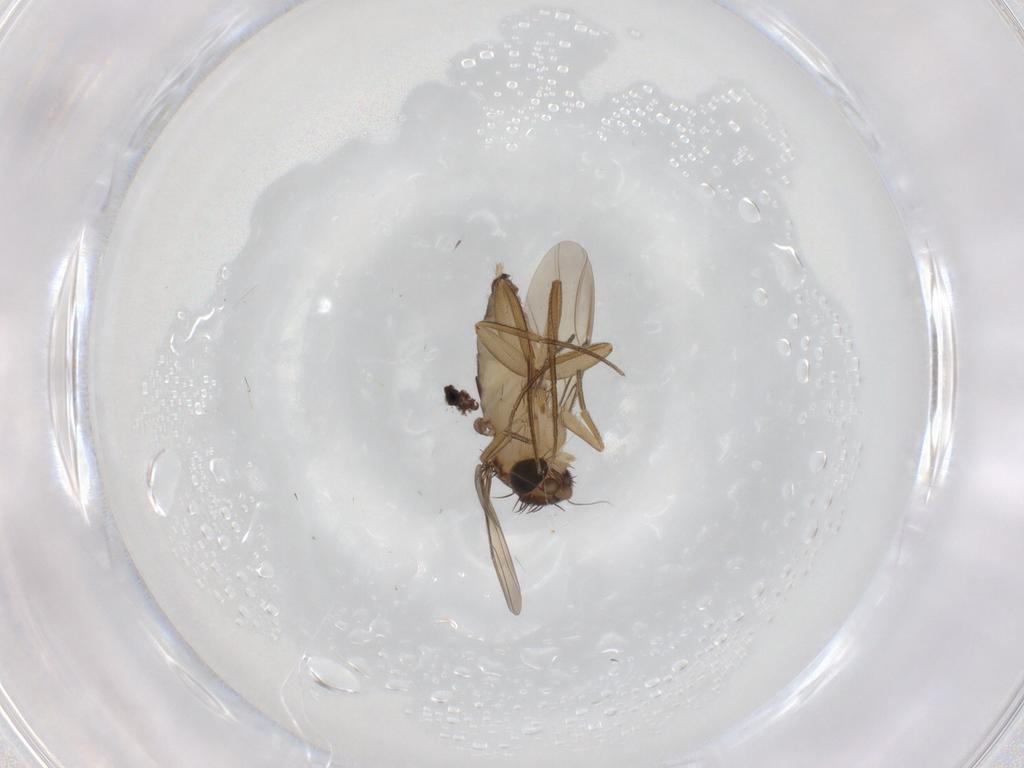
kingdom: Animalia
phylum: Arthropoda
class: Insecta
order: Diptera
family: Phoridae
